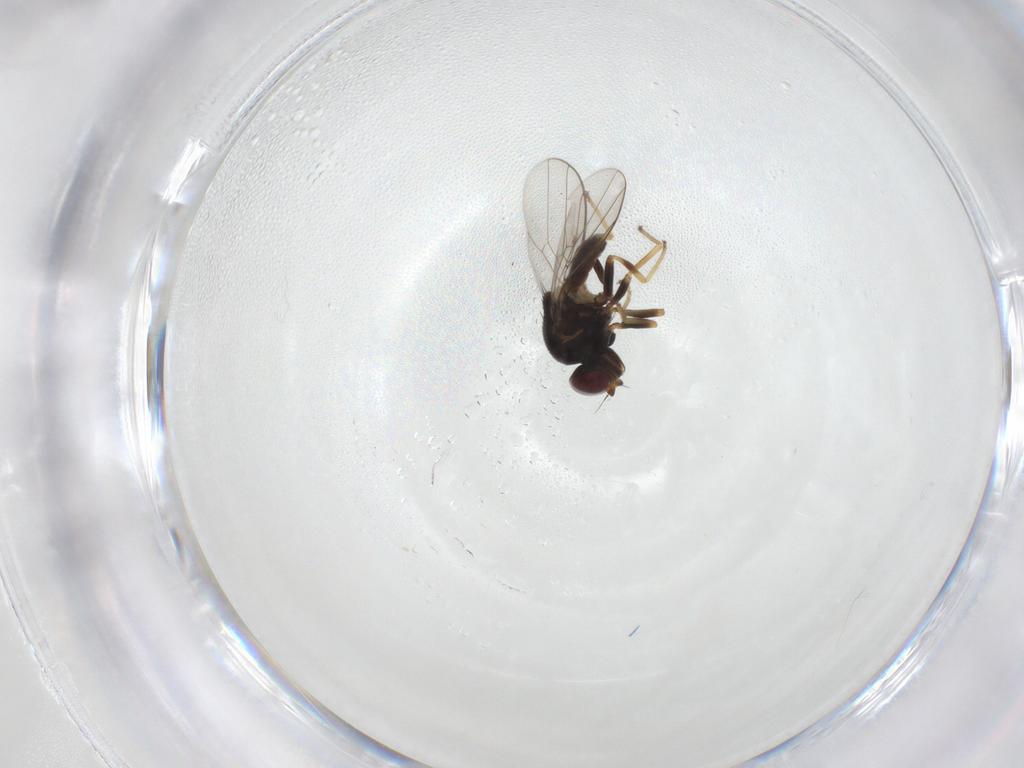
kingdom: Animalia
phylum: Arthropoda
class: Insecta
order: Diptera
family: Chloropidae
